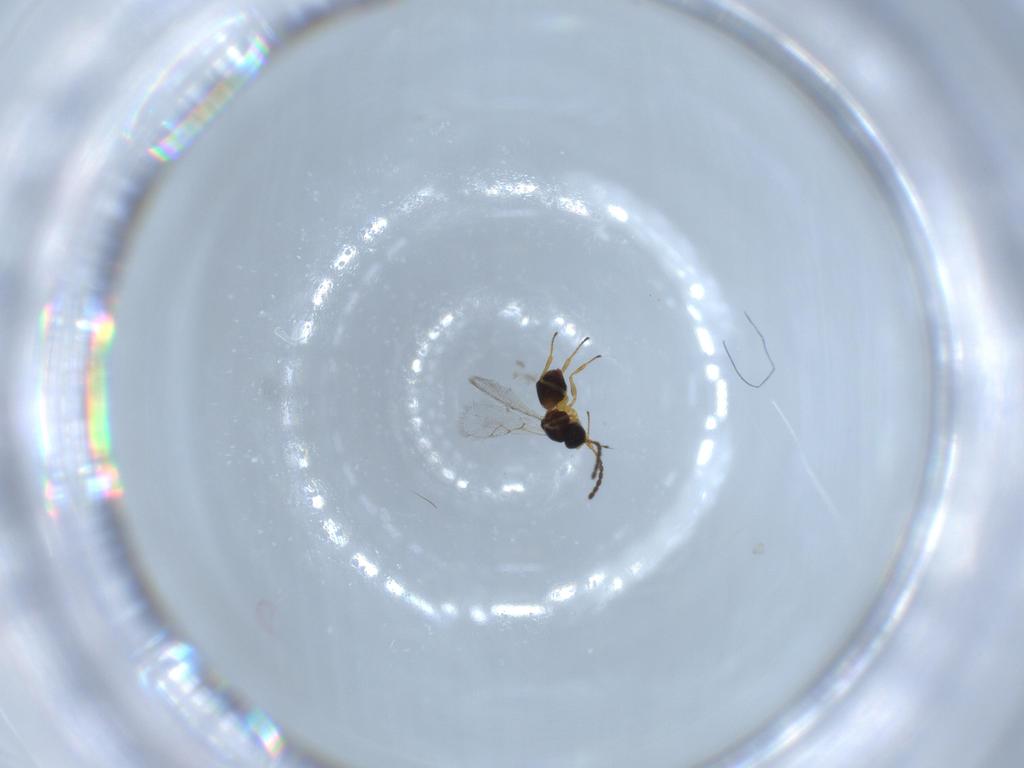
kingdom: Animalia
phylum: Arthropoda
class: Insecta
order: Hymenoptera
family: Figitidae
